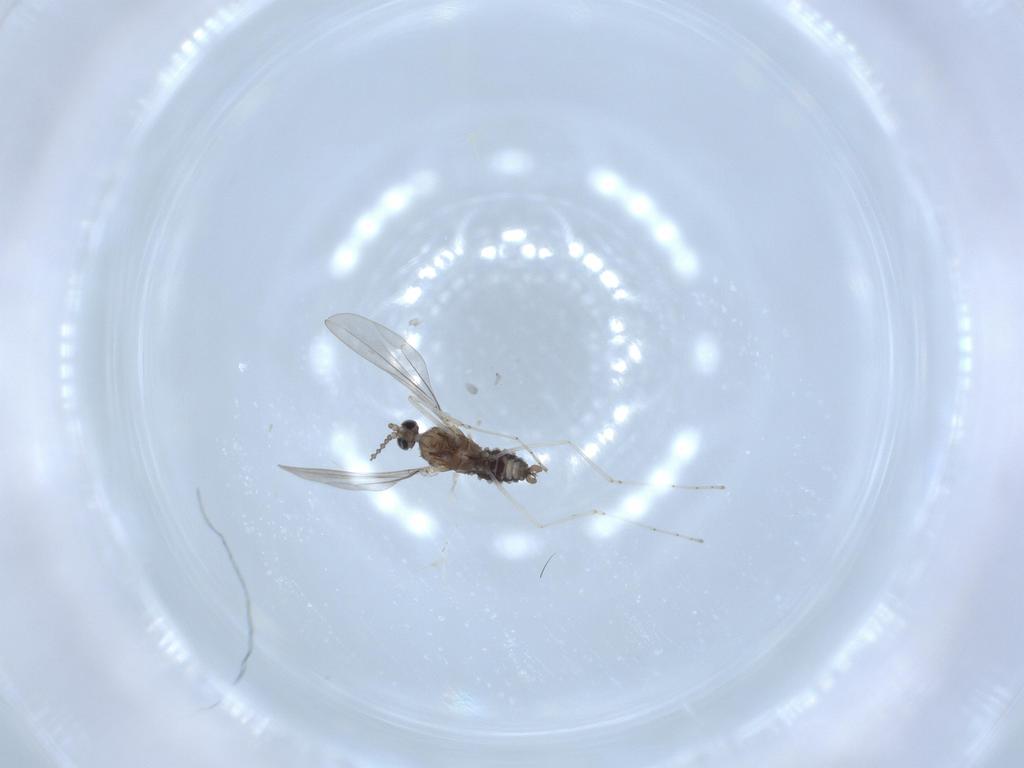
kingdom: Animalia
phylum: Arthropoda
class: Insecta
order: Diptera
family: Cecidomyiidae
